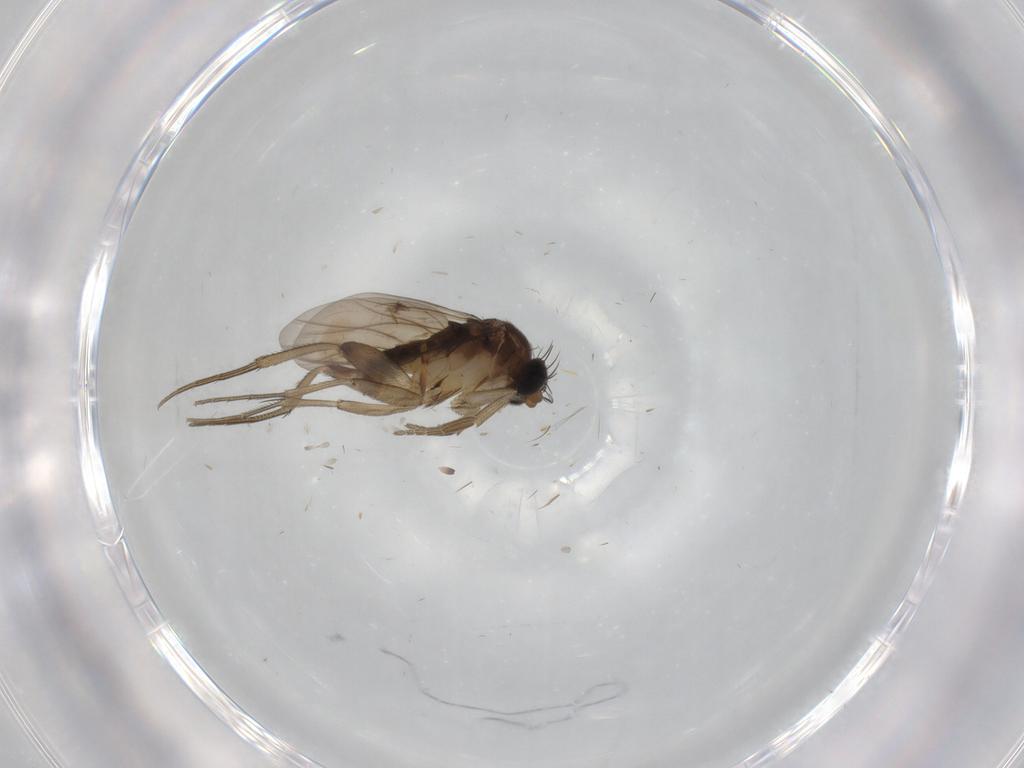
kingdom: Animalia
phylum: Arthropoda
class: Insecta
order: Diptera
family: Phoridae
